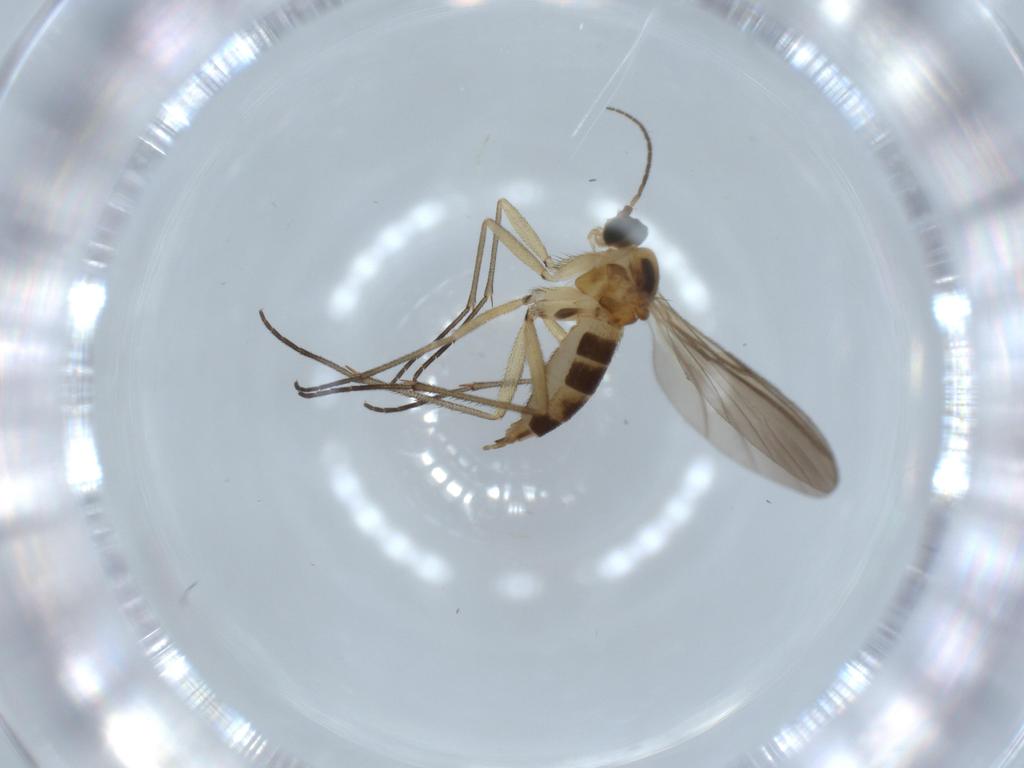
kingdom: Animalia
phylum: Arthropoda
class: Insecta
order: Diptera
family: Sciaridae
